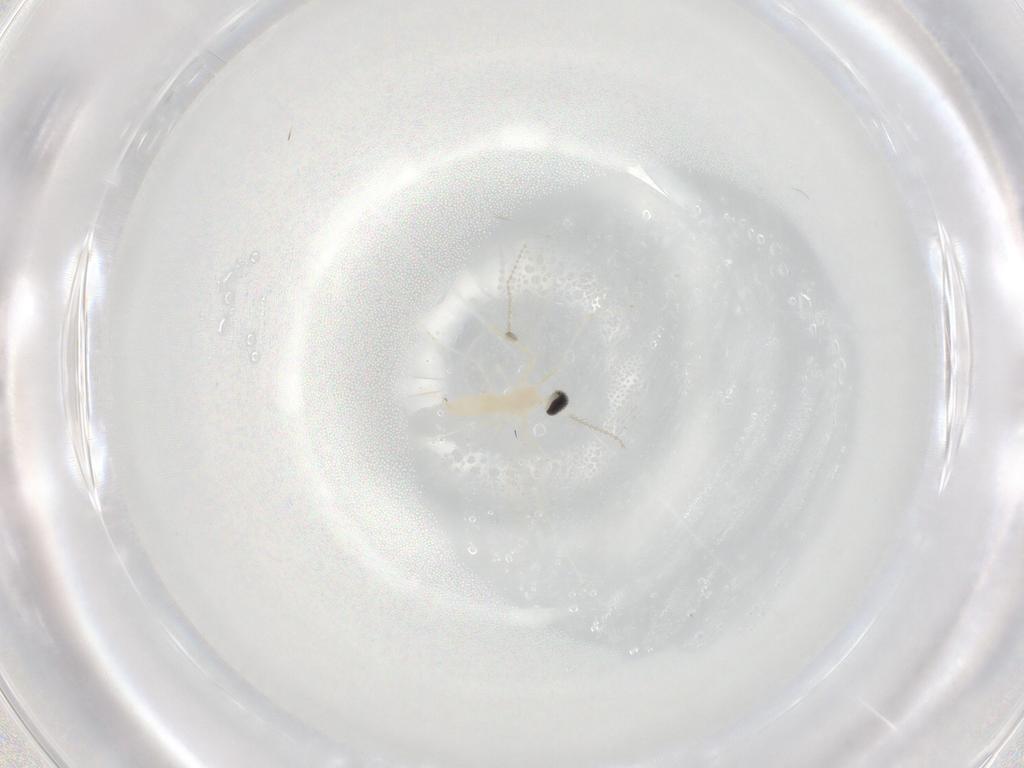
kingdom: Animalia
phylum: Arthropoda
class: Insecta
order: Diptera
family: Cecidomyiidae
